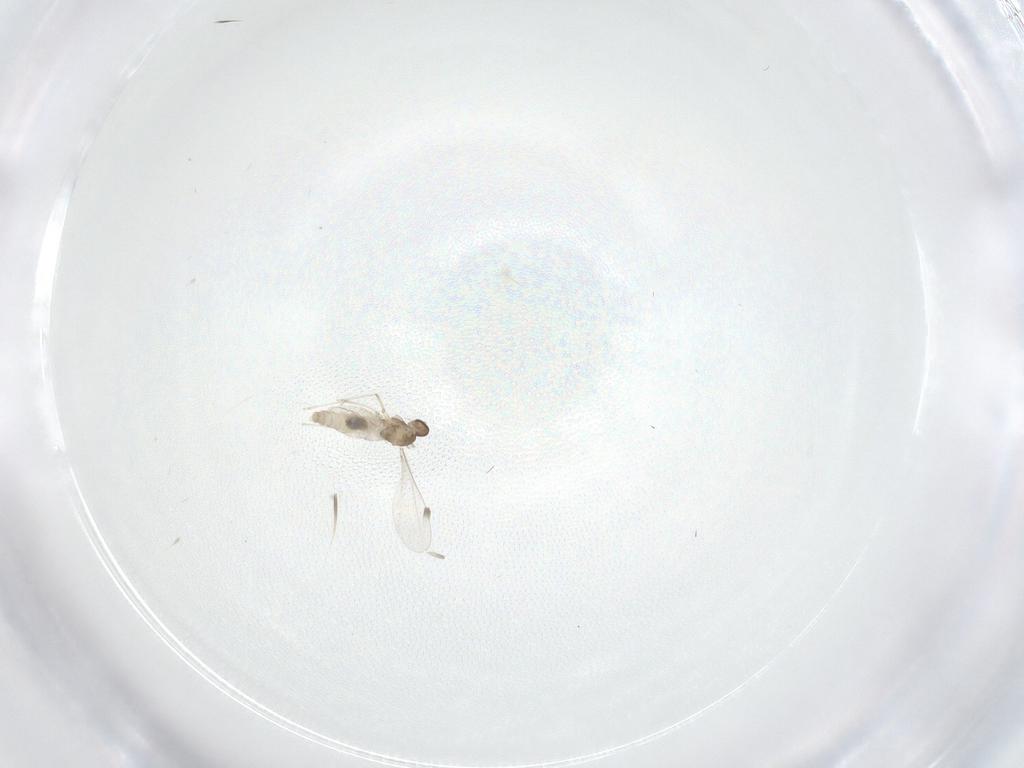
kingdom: Animalia
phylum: Arthropoda
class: Insecta
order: Diptera
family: Cecidomyiidae
